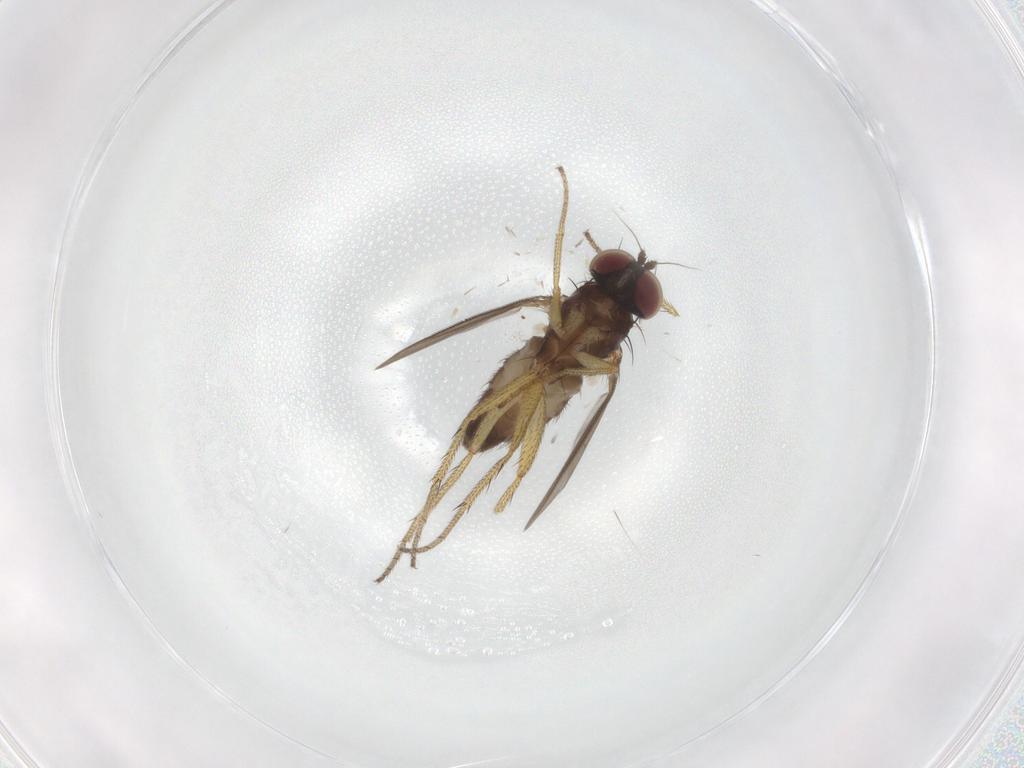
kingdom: Animalia
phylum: Arthropoda
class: Insecta
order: Diptera
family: Dolichopodidae
